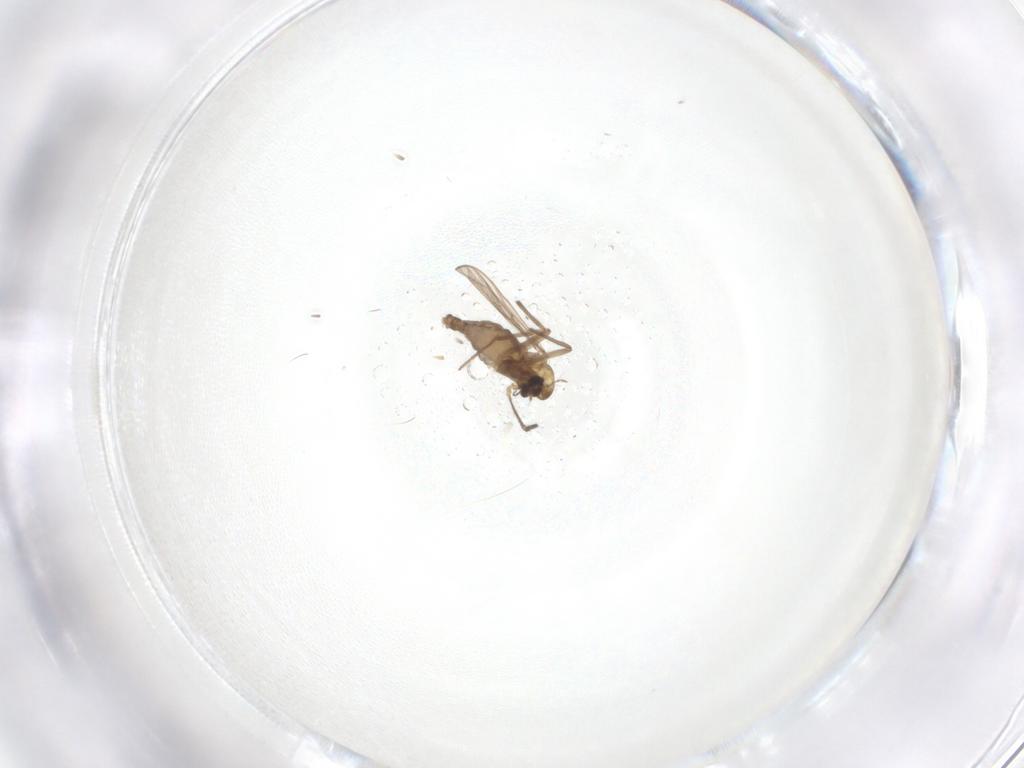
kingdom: Animalia
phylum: Arthropoda
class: Insecta
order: Diptera
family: Chironomidae
